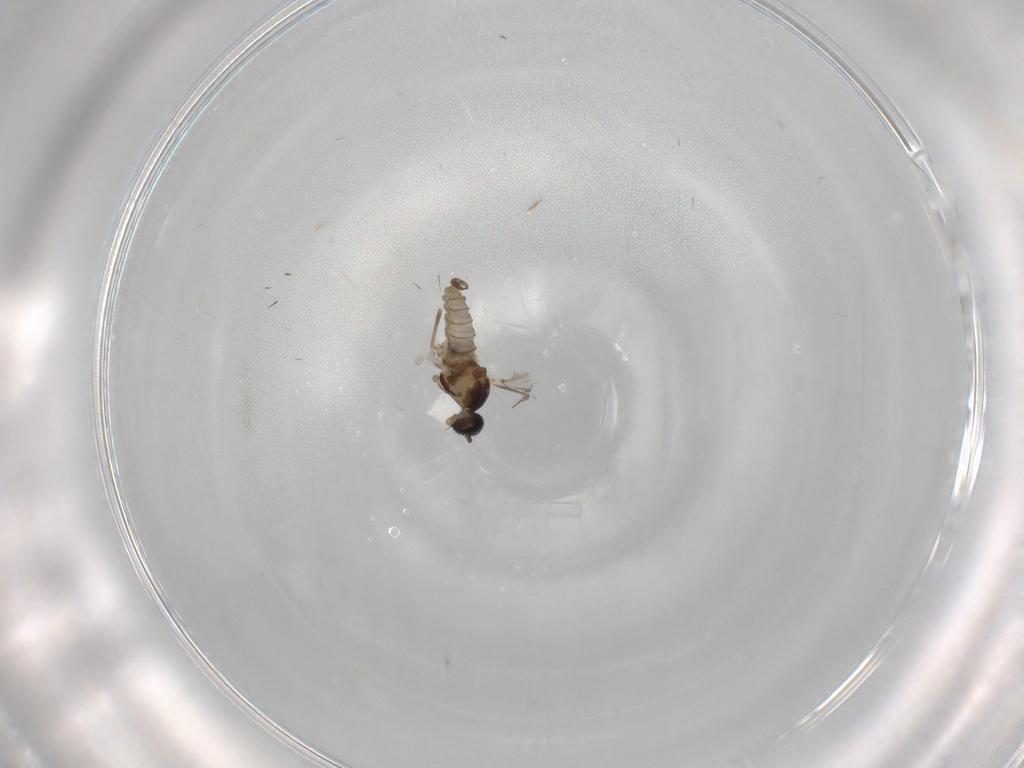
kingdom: Animalia
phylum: Arthropoda
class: Insecta
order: Diptera
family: Cecidomyiidae
